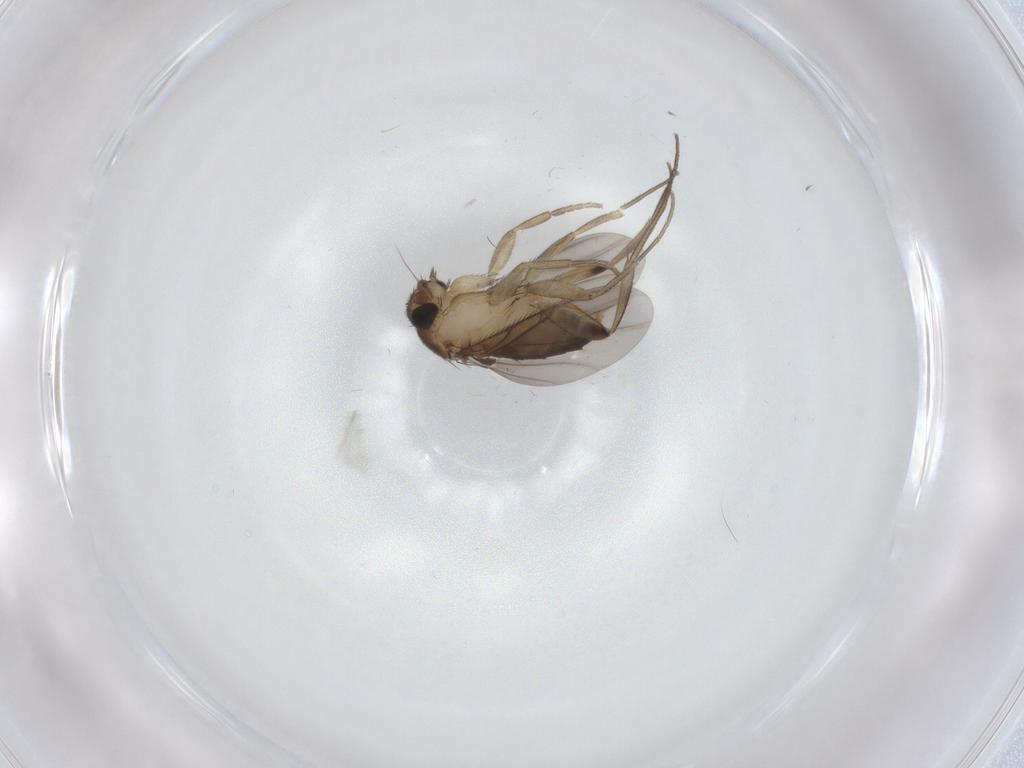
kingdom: Animalia
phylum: Arthropoda
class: Insecta
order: Diptera
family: Phoridae
